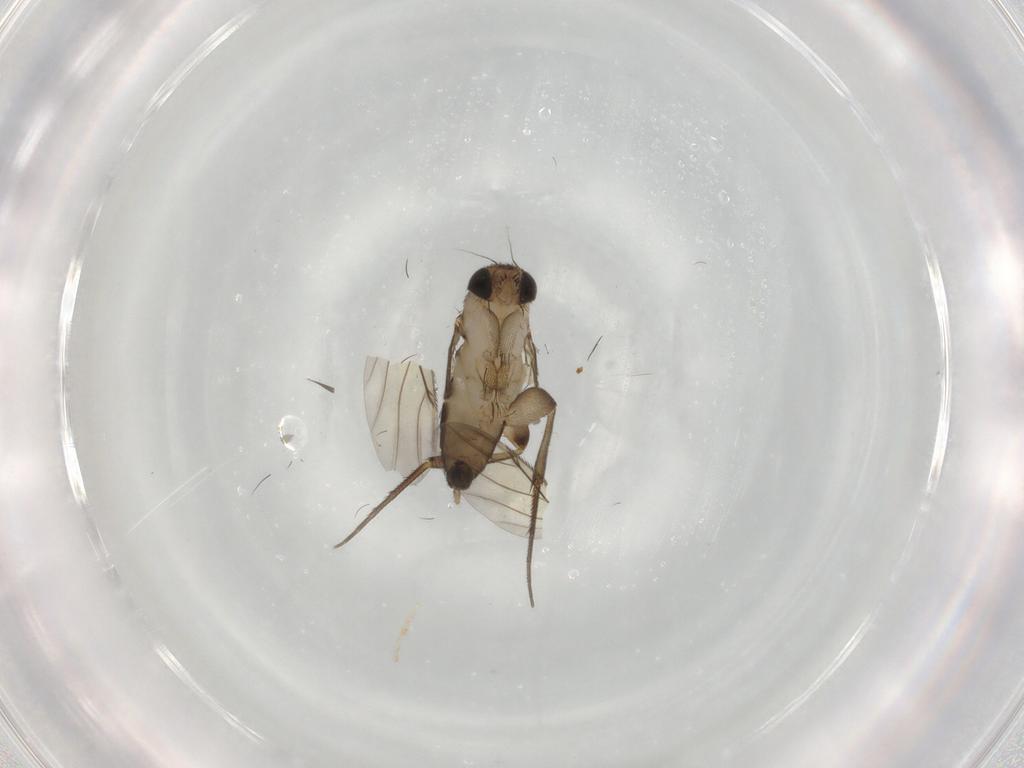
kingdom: Animalia
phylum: Arthropoda
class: Insecta
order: Diptera
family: Phoridae
